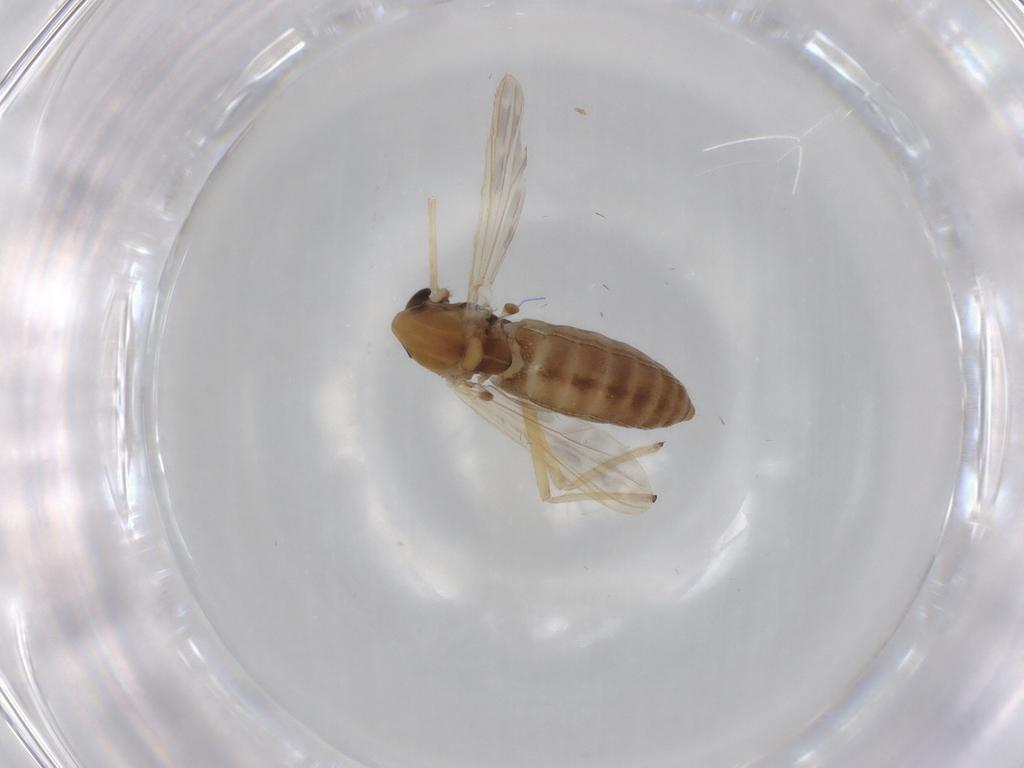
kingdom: Animalia
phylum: Arthropoda
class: Insecta
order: Diptera
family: Chironomidae
